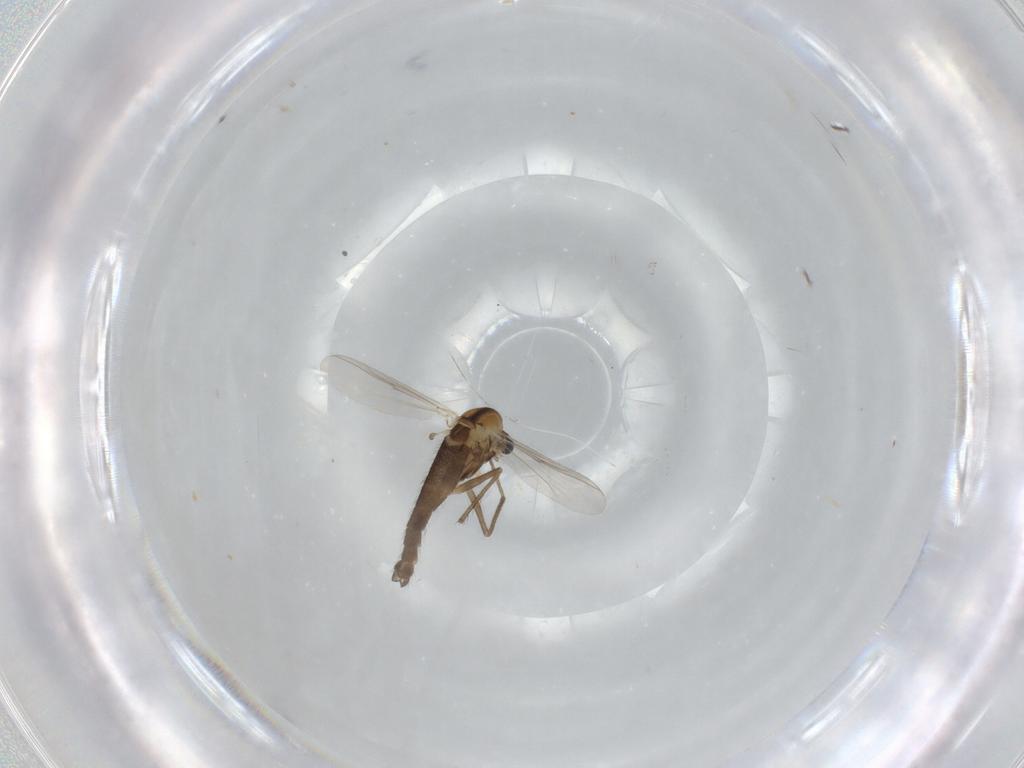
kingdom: Animalia
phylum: Arthropoda
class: Insecta
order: Diptera
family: Chironomidae
